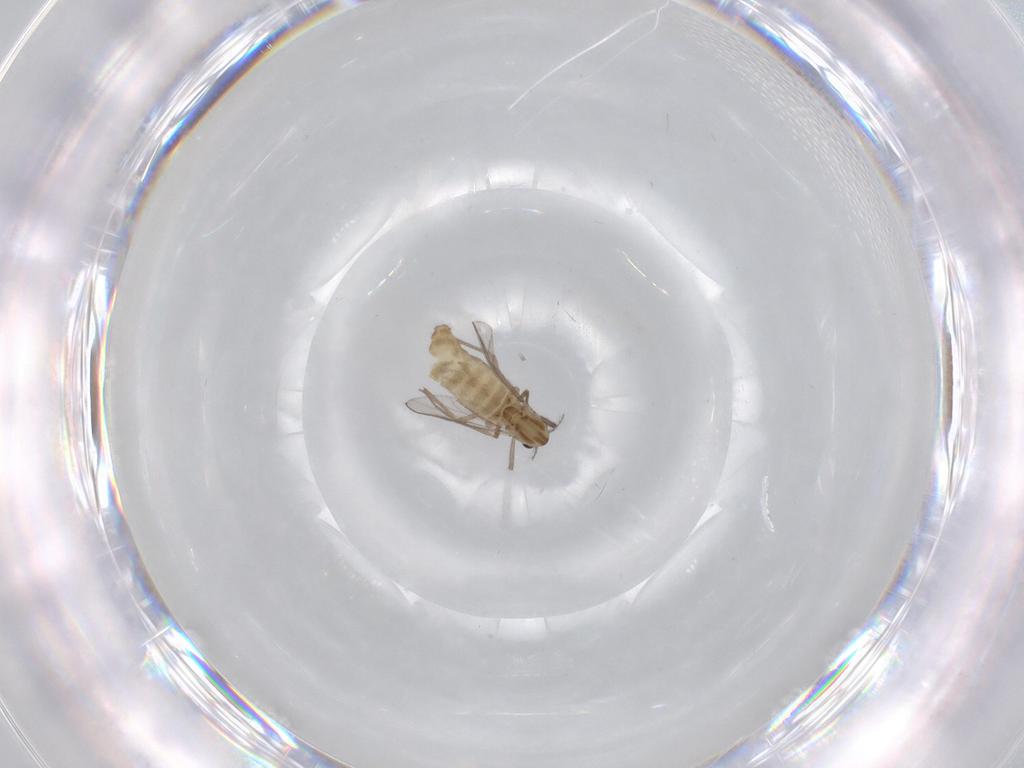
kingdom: Animalia
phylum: Arthropoda
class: Insecta
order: Diptera
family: Chironomidae
